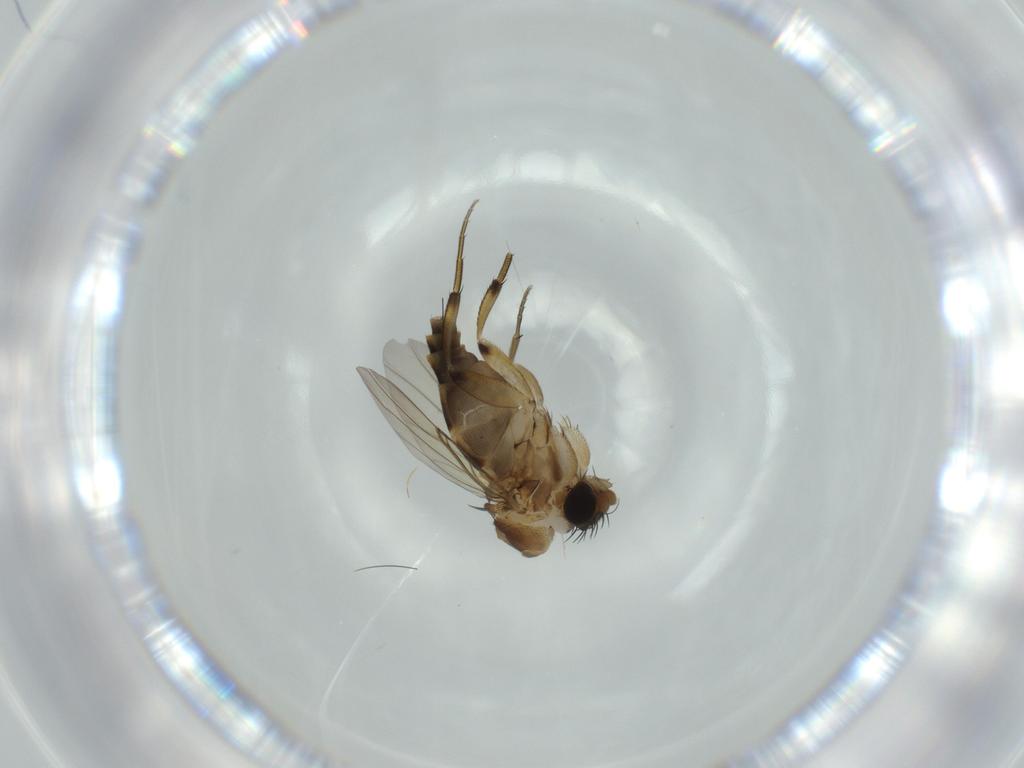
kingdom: Animalia
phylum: Arthropoda
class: Insecta
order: Diptera
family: Phoridae
